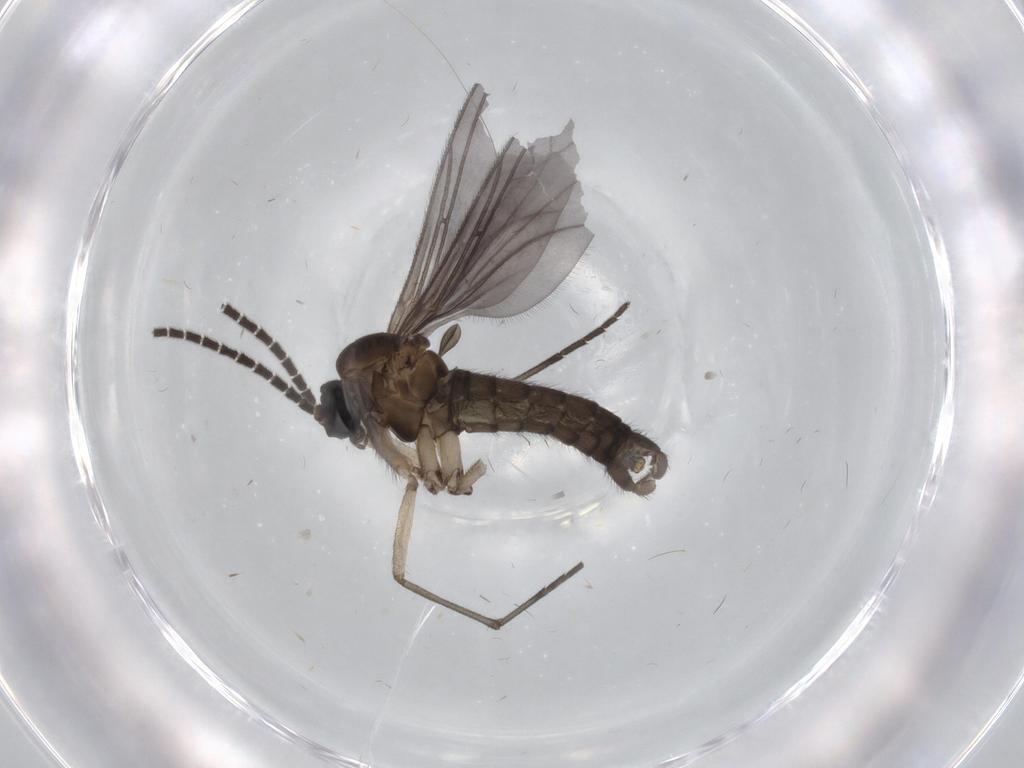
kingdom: Animalia
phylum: Arthropoda
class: Insecta
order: Diptera
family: Sciaridae
